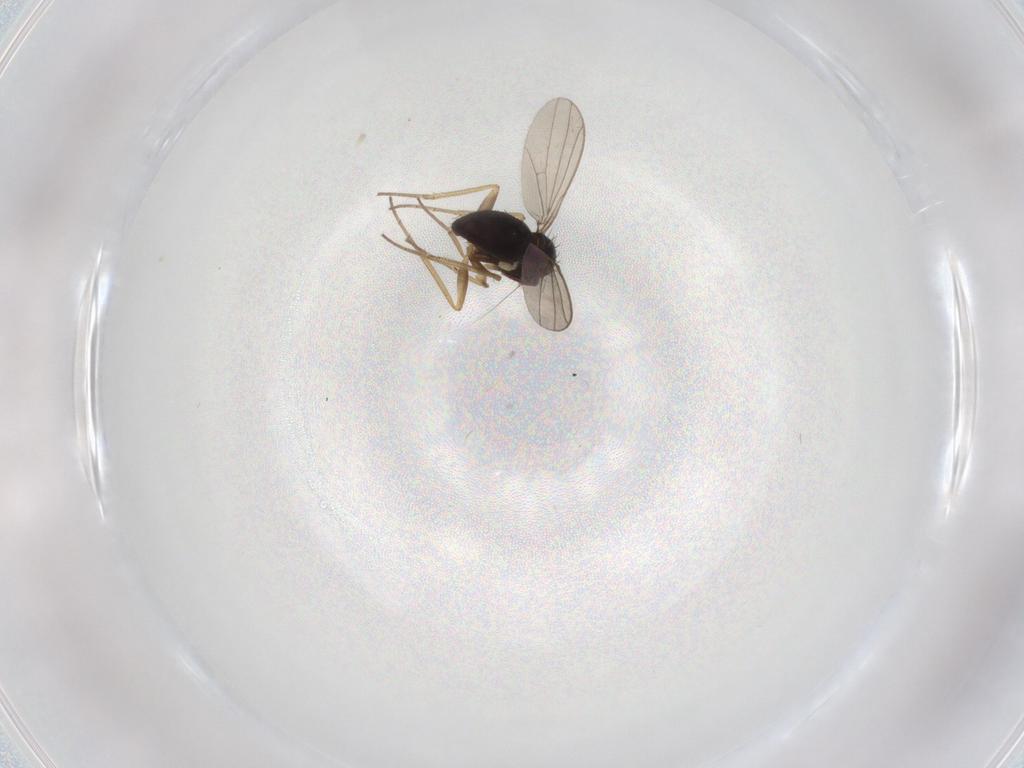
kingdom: Animalia
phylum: Arthropoda
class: Insecta
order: Diptera
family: Dolichopodidae
